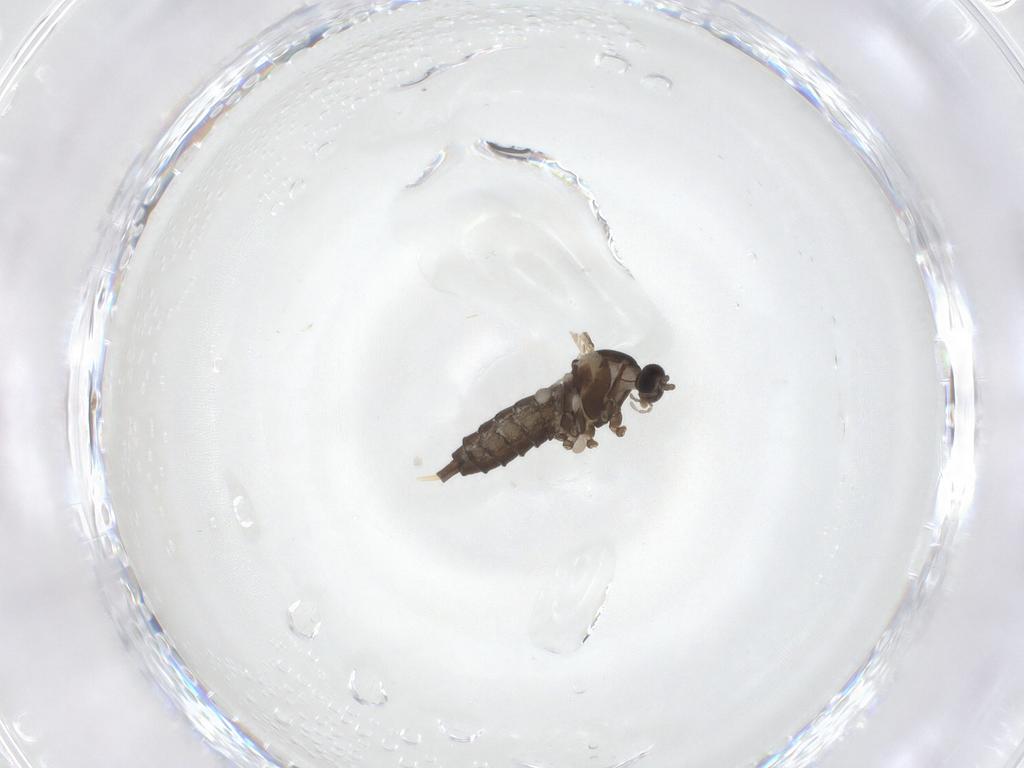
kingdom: Animalia
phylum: Arthropoda
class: Insecta
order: Diptera
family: Cecidomyiidae
